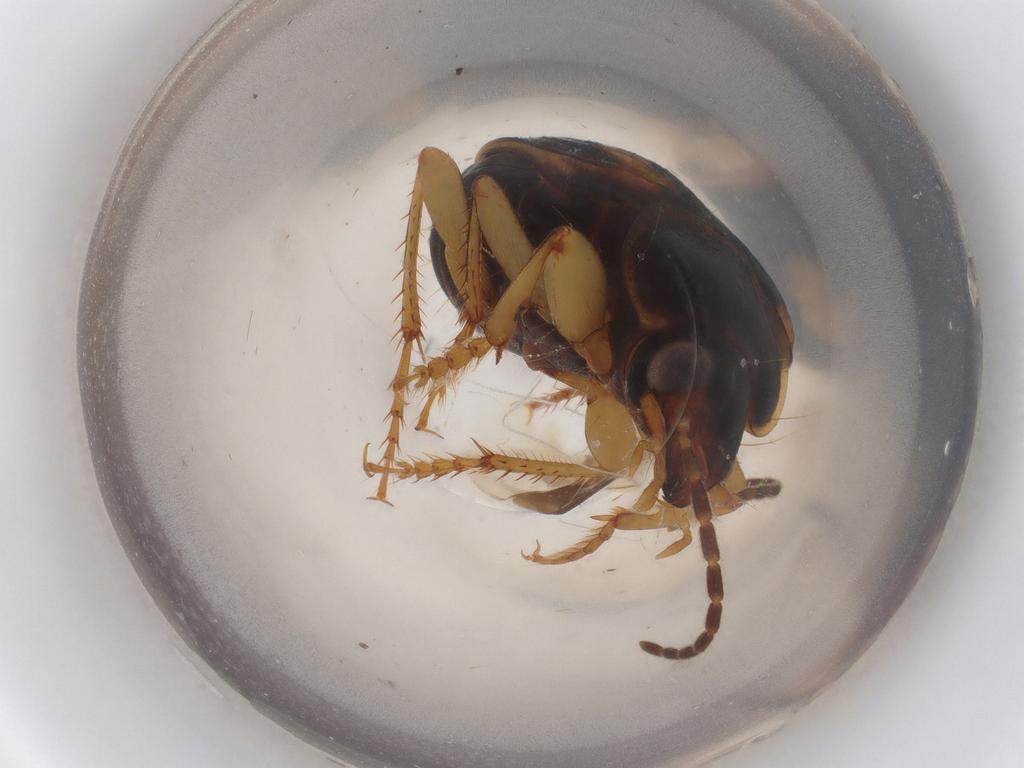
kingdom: Animalia
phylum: Arthropoda
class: Insecta
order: Coleoptera
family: Carabidae
